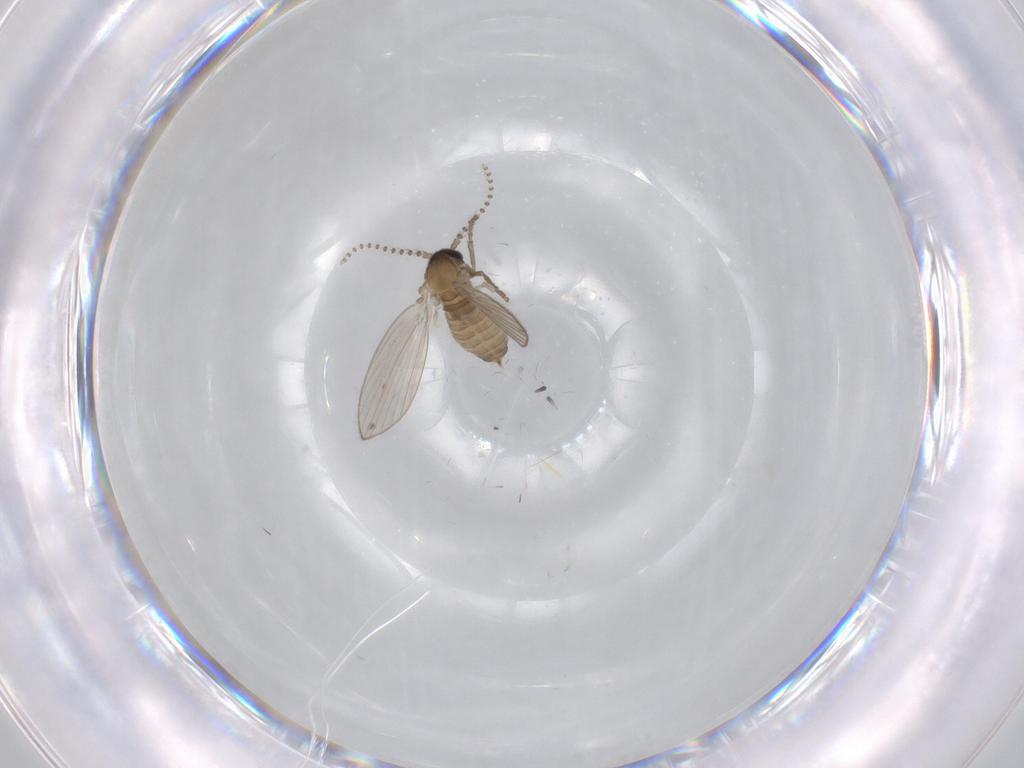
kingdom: Animalia
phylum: Arthropoda
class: Insecta
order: Diptera
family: Psychodidae
